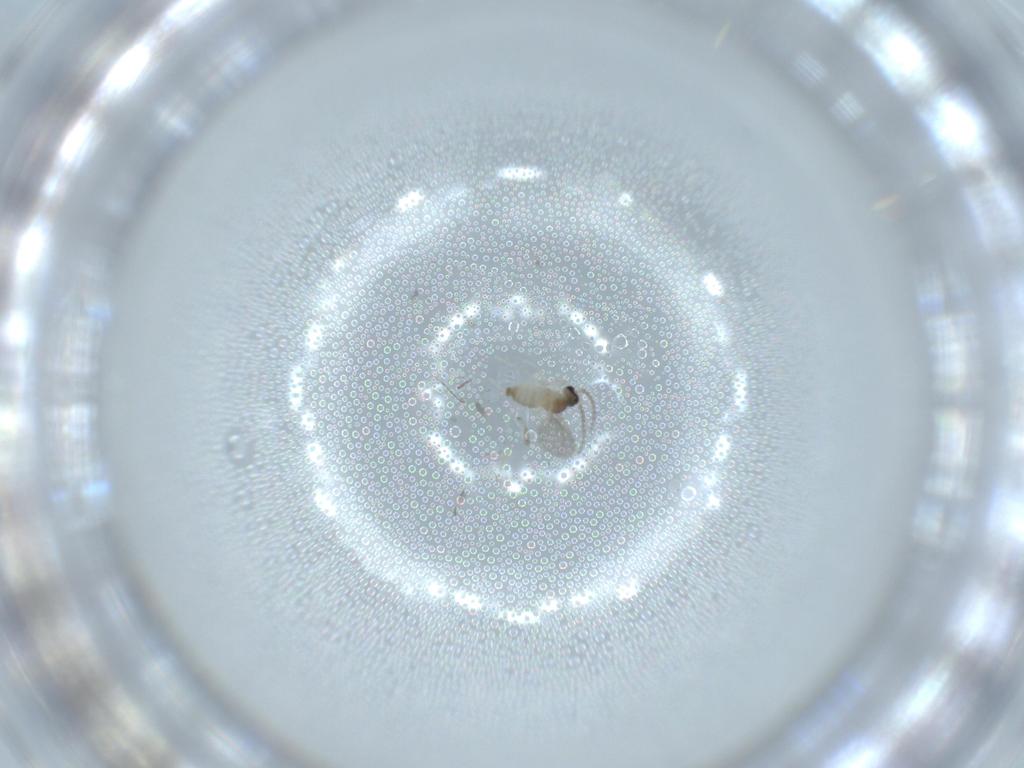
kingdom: Animalia
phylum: Arthropoda
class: Insecta
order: Diptera
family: Cecidomyiidae
